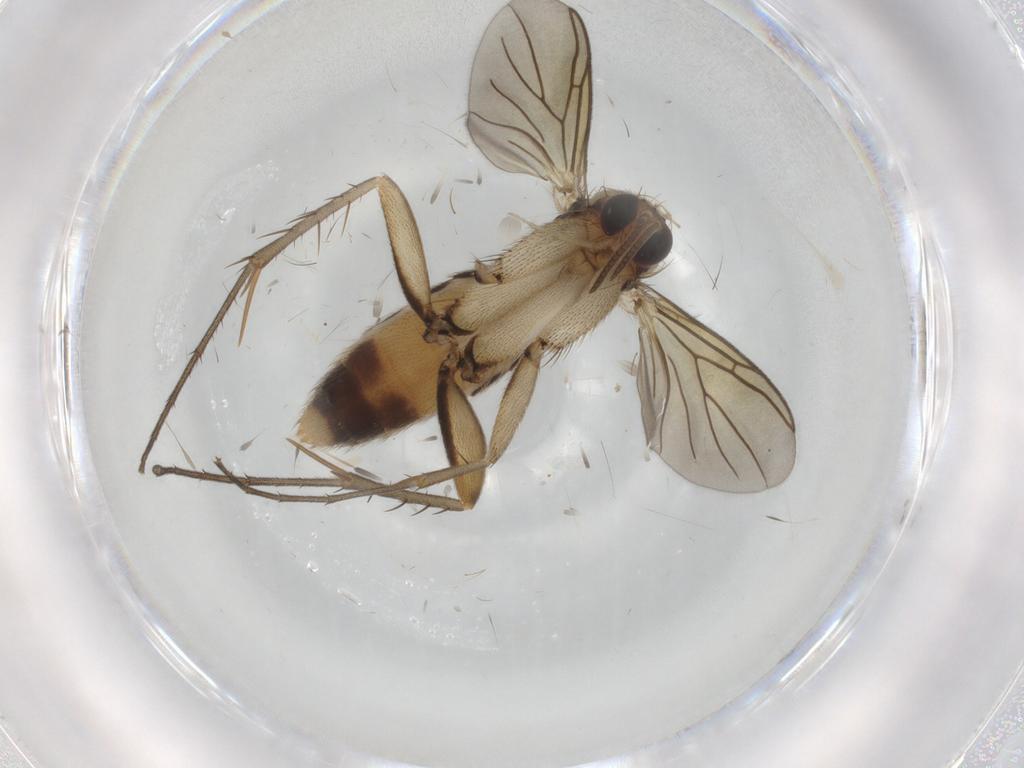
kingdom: Animalia
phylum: Arthropoda
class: Insecta
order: Diptera
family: Mycetophilidae
